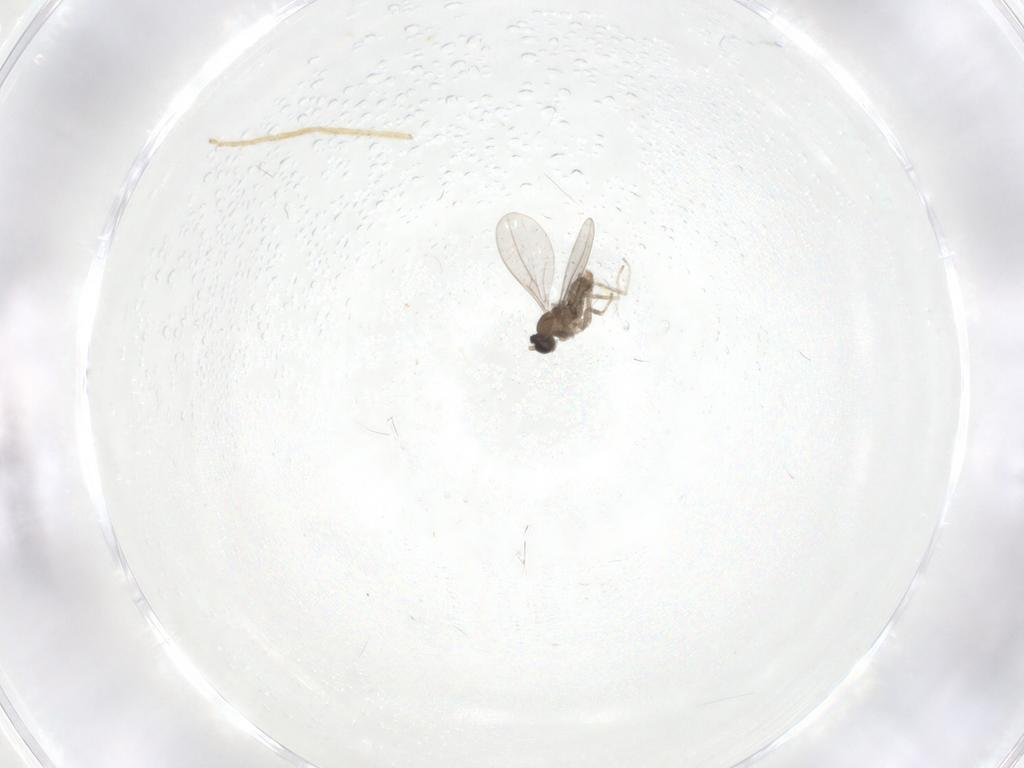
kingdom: Animalia
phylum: Arthropoda
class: Insecta
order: Diptera
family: Chironomidae
